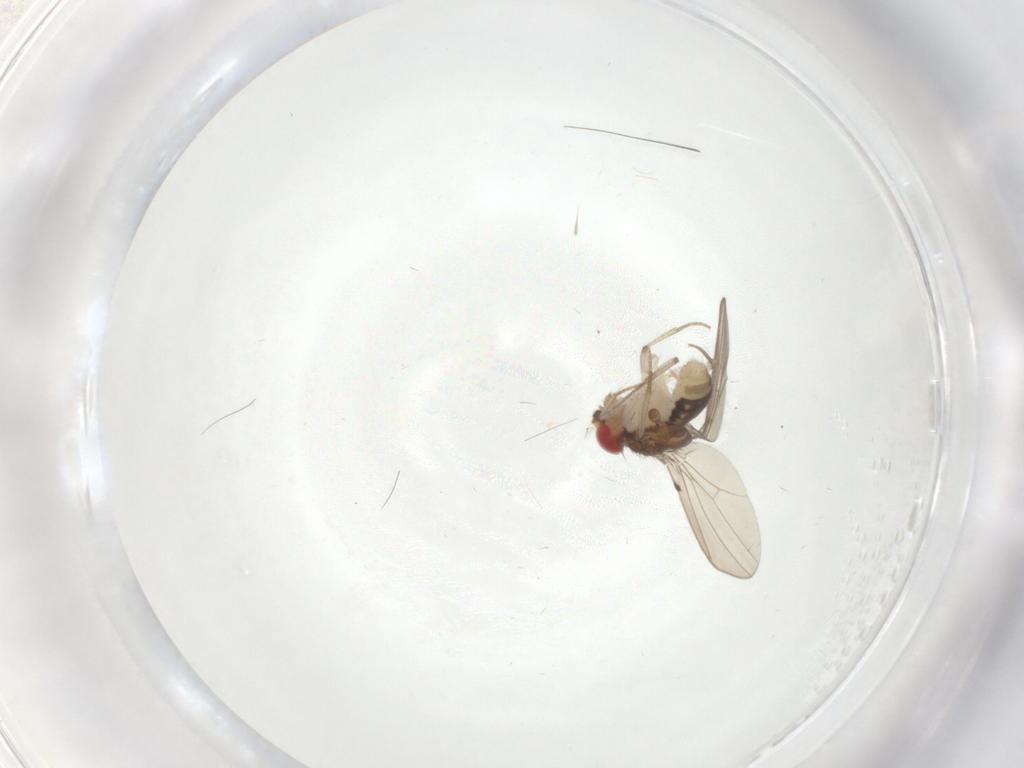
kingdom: Animalia
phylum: Arthropoda
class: Insecta
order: Diptera
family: Drosophilidae
